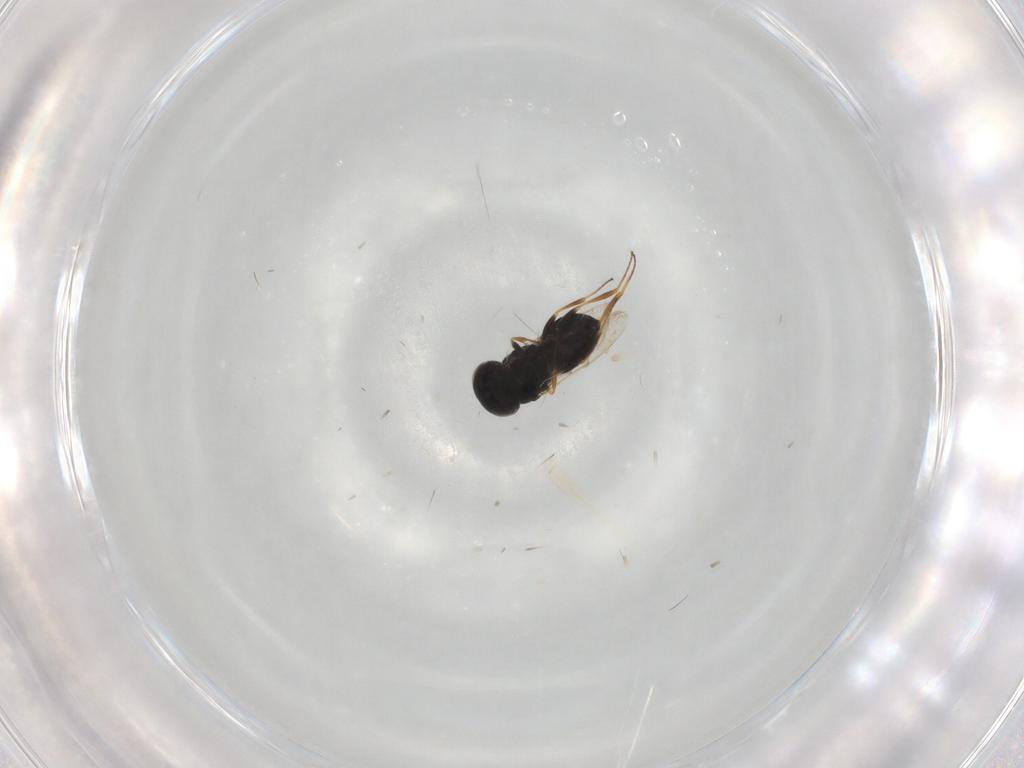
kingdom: Animalia
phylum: Arthropoda
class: Insecta
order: Hymenoptera
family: Scelionidae
